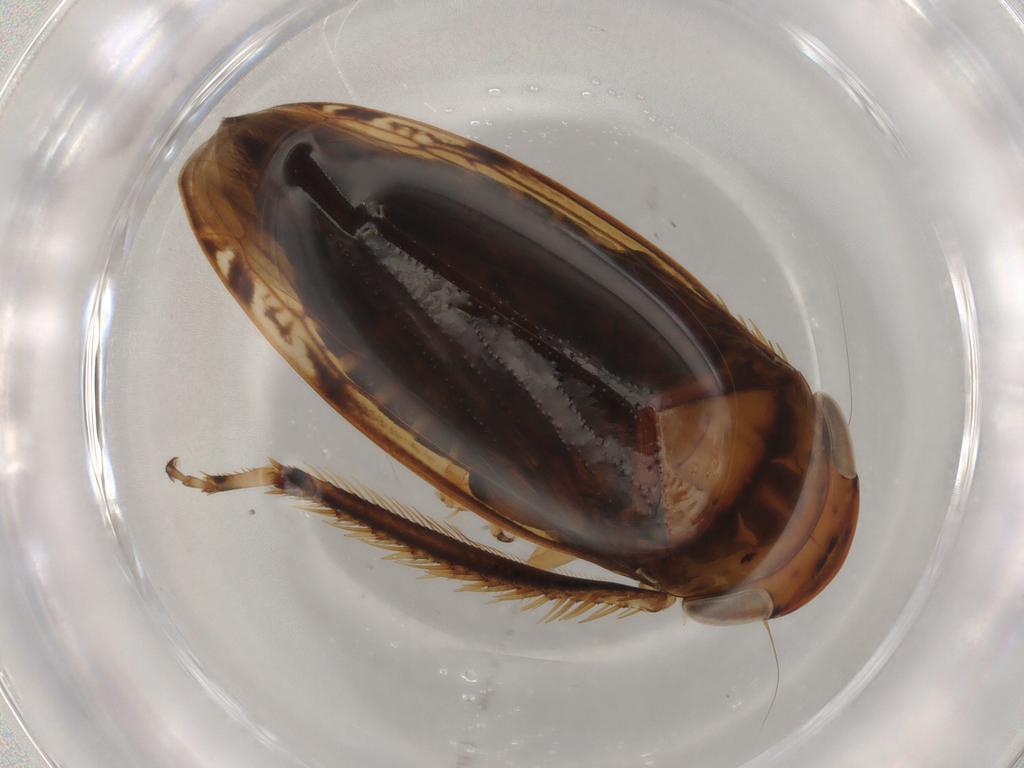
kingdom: Animalia
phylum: Arthropoda
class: Insecta
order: Hemiptera
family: Aleyrodidae
